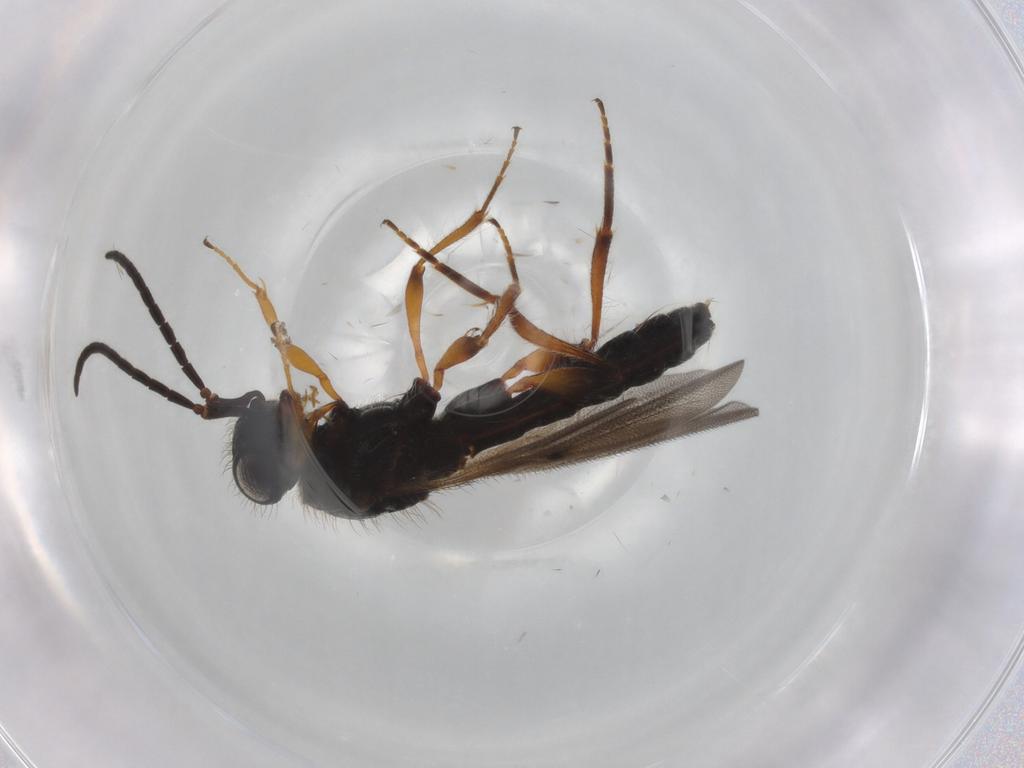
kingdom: Animalia
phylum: Arthropoda
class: Insecta
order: Hymenoptera
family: Scelionidae
